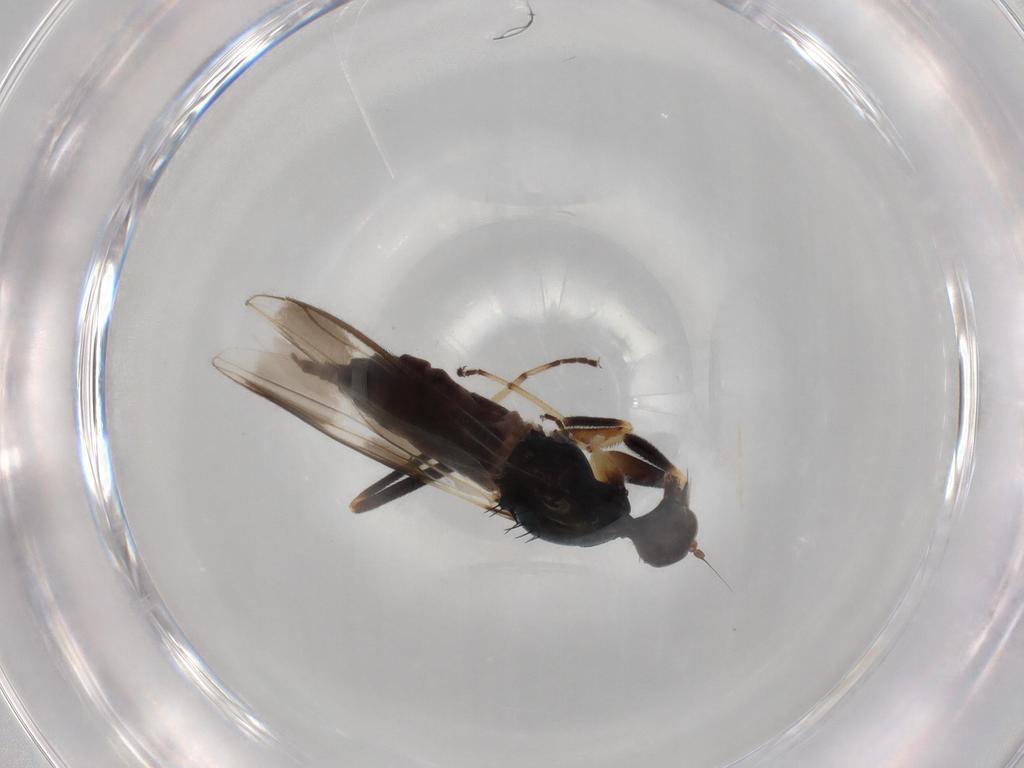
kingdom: Animalia
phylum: Arthropoda
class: Insecta
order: Diptera
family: Hybotidae
